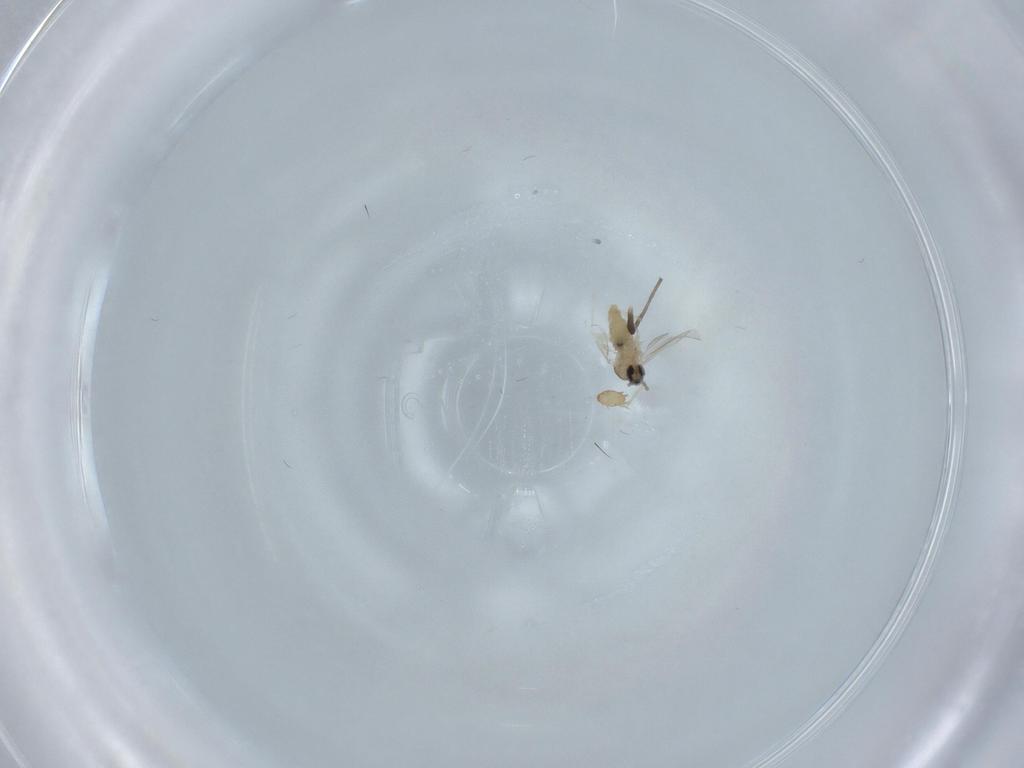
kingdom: Animalia
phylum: Arthropoda
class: Insecta
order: Diptera
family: Cecidomyiidae
